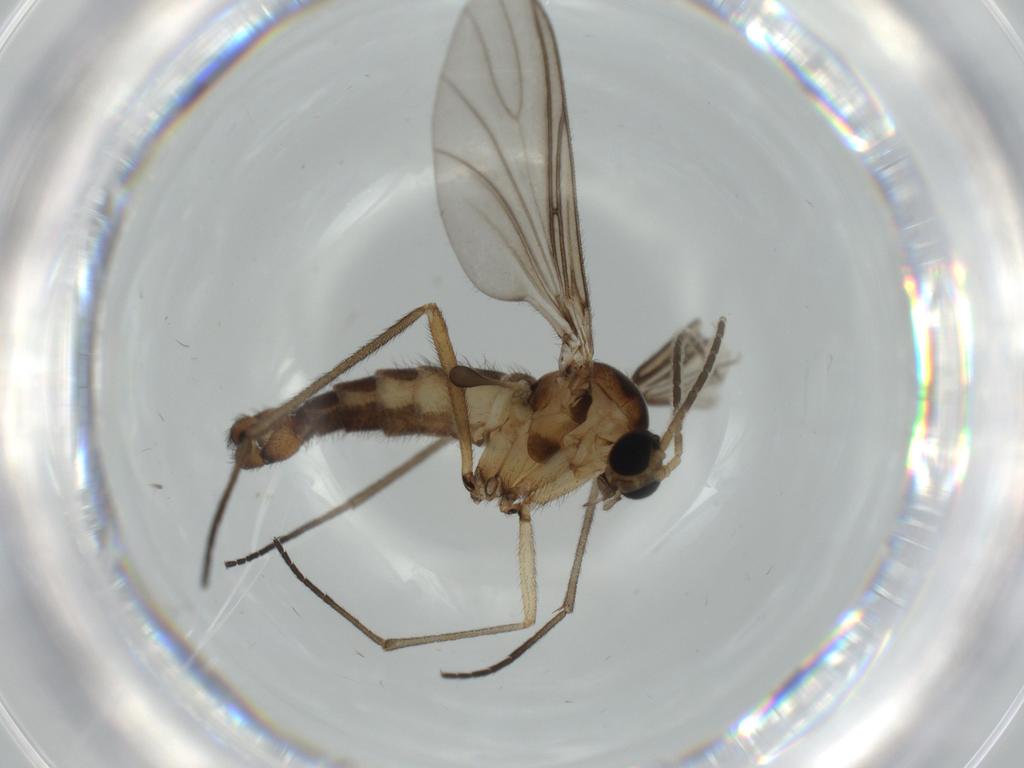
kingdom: Animalia
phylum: Arthropoda
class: Insecta
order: Diptera
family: Sciaridae
